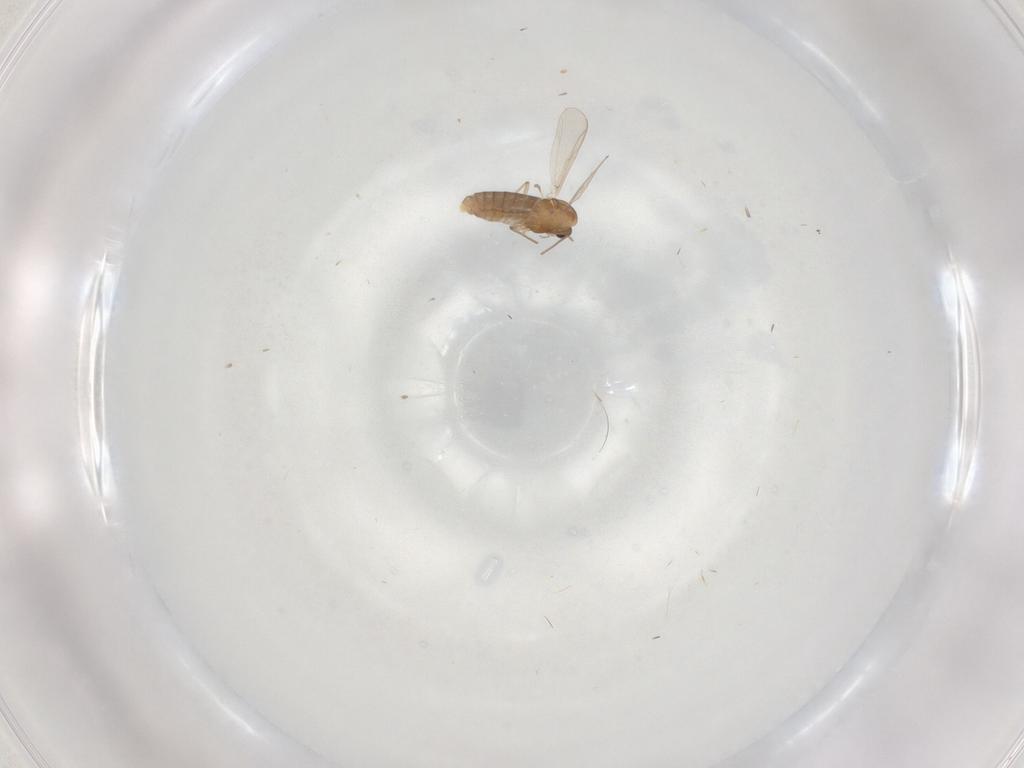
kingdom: Animalia
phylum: Arthropoda
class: Insecta
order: Diptera
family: Chironomidae
